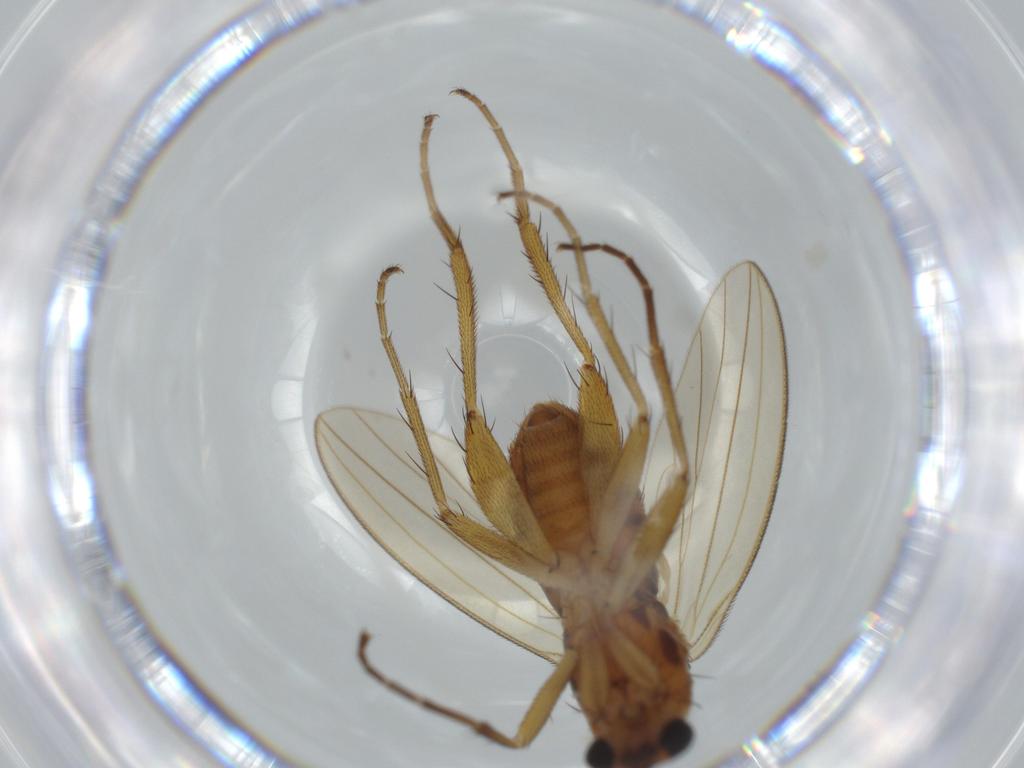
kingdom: Animalia
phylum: Arthropoda
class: Insecta
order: Diptera
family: Lonchopteridae
